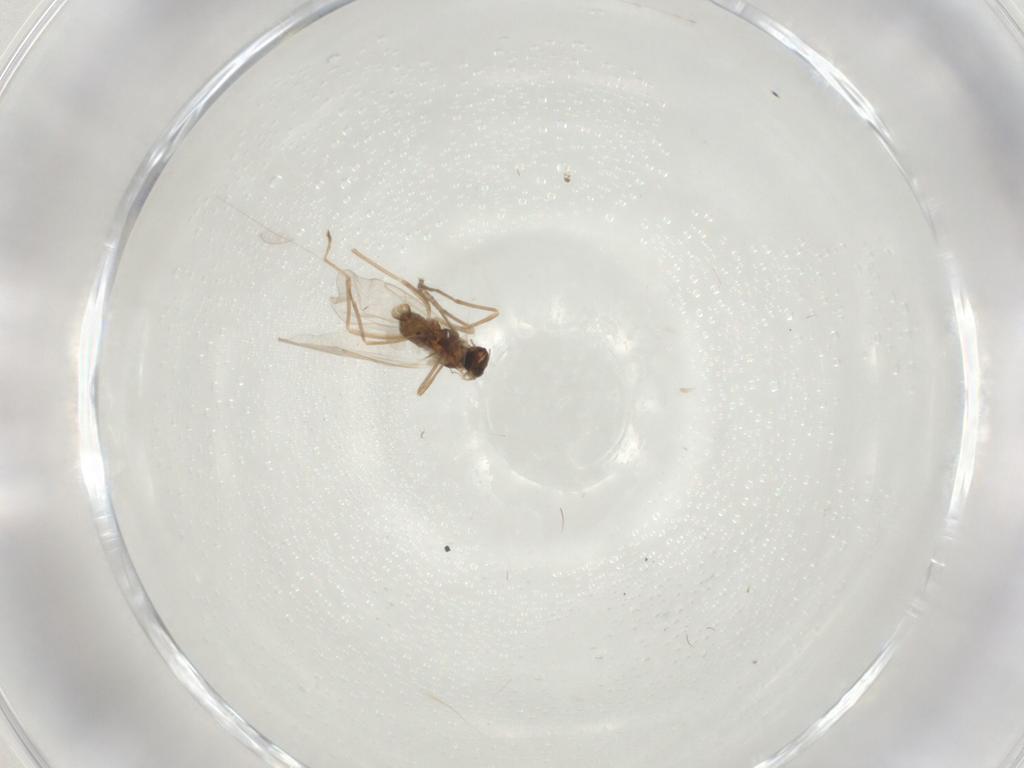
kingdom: Animalia
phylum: Arthropoda
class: Insecta
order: Diptera
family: Cecidomyiidae
